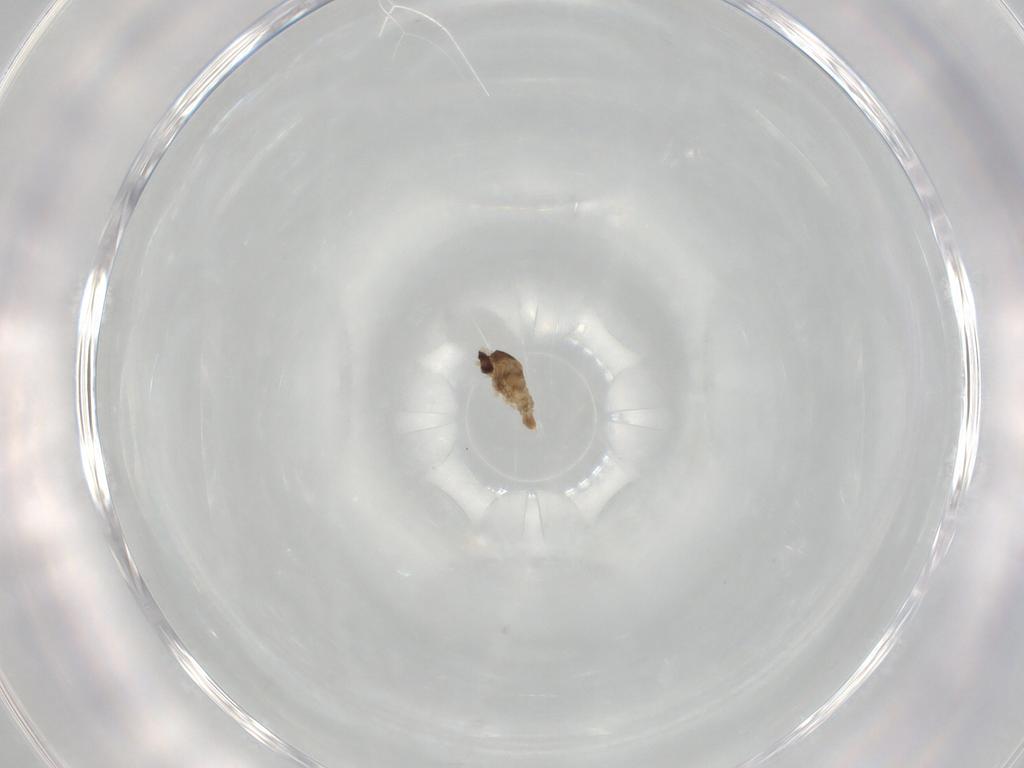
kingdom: Animalia
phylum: Arthropoda
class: Insecta
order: Diptera
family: Cecidomyiidae
